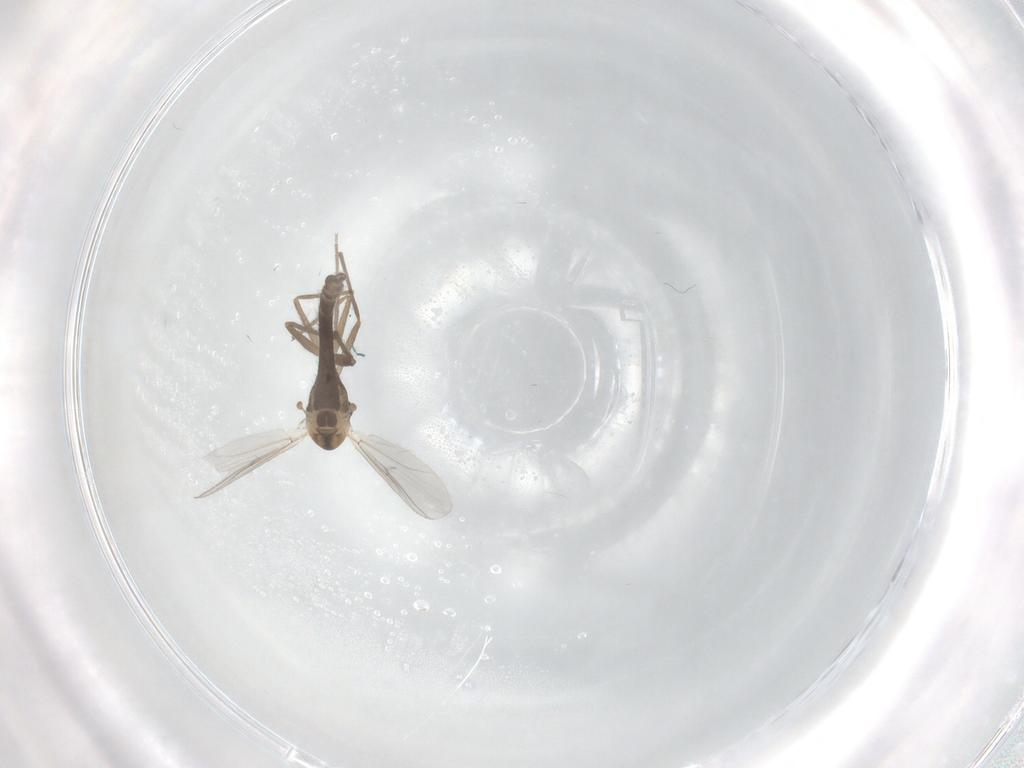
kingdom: Animalia
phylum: Arthropoda
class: Insecta
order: Diptera
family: Chironomidae
